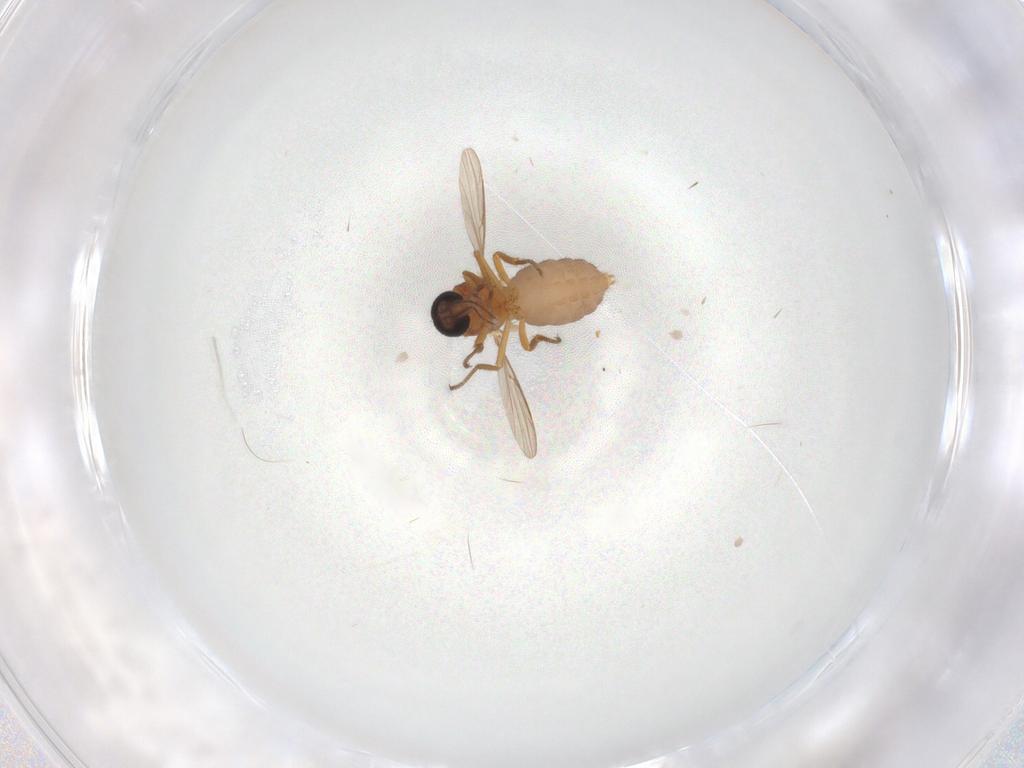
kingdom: Animalia
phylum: Arthropoda
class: Insecta
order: Diptera
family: Ceratopogonidae
